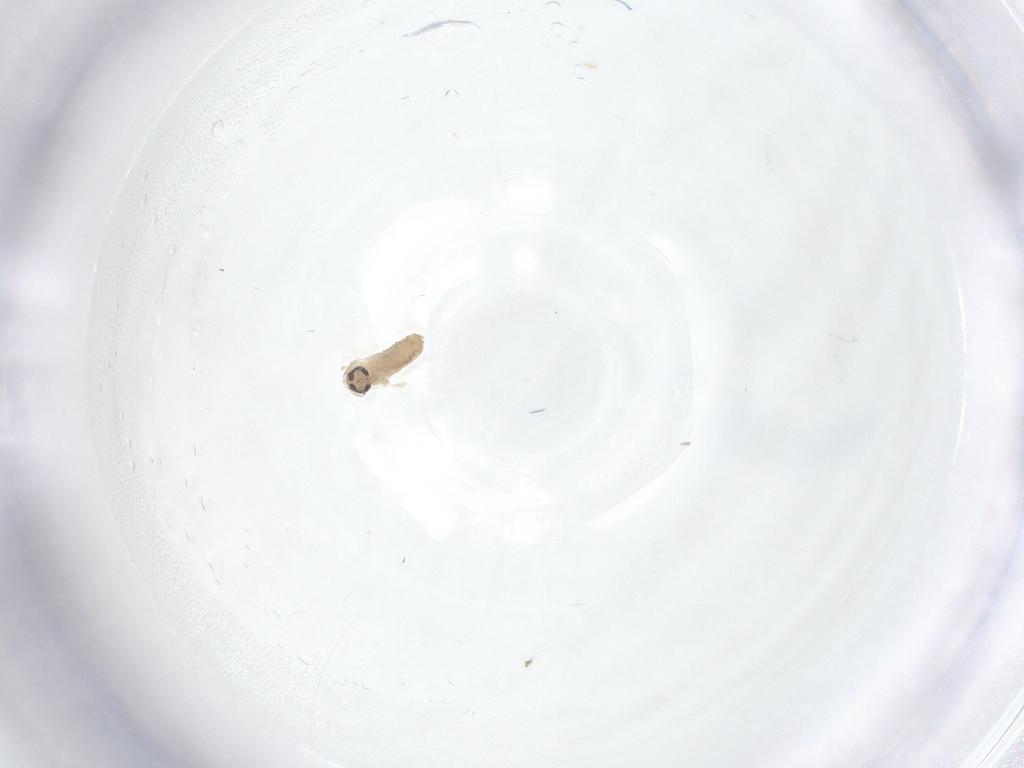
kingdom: Animalia
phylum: Arthropoda
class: Insecta
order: Diptera
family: Psychodidae
